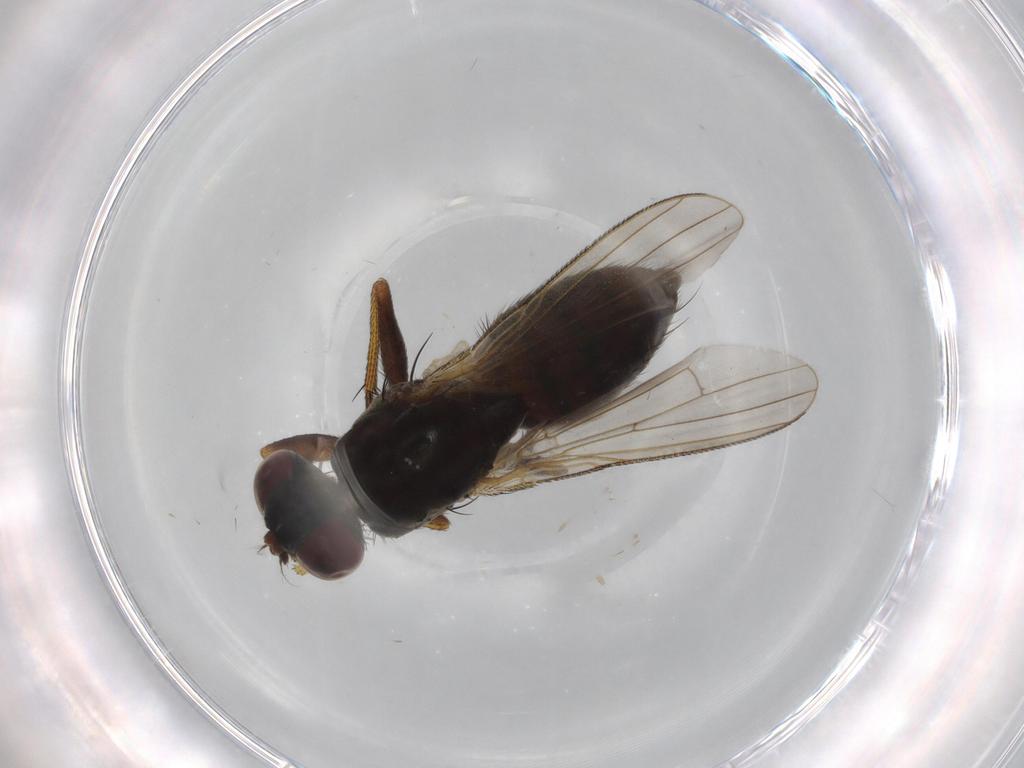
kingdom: Animalia
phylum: Arthropoda
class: Insecta
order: Diptera
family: Muscidae
